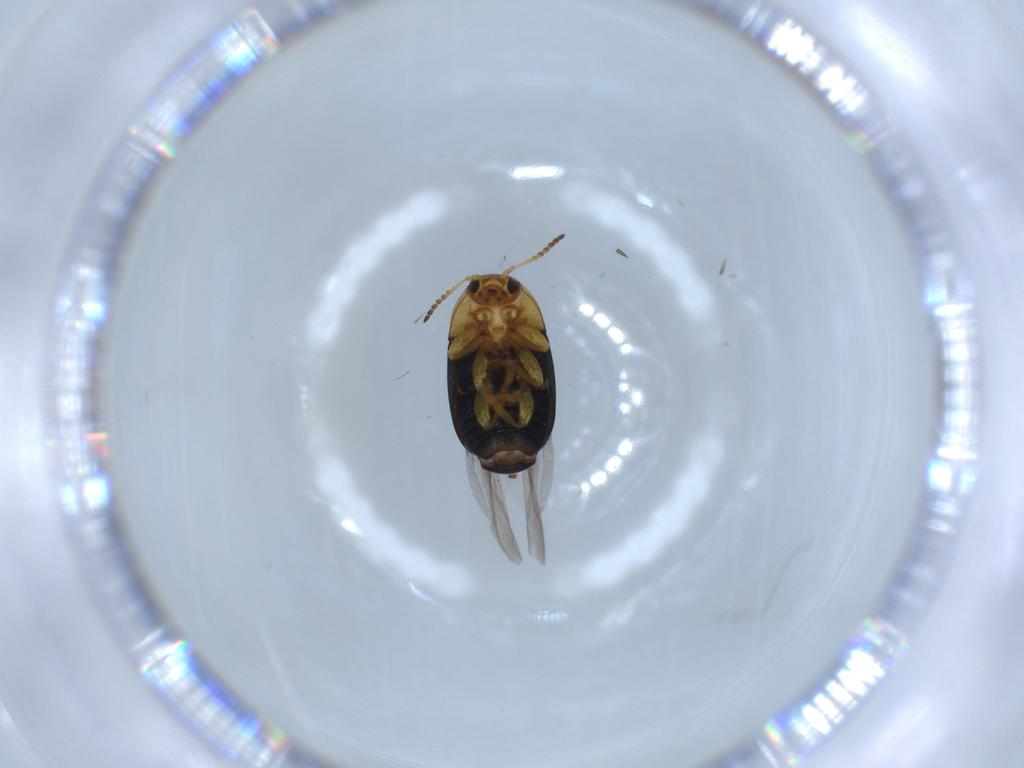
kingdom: Animalia
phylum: Arthropoda
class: Insecta
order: Coleoptera
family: Chrysomelidae
